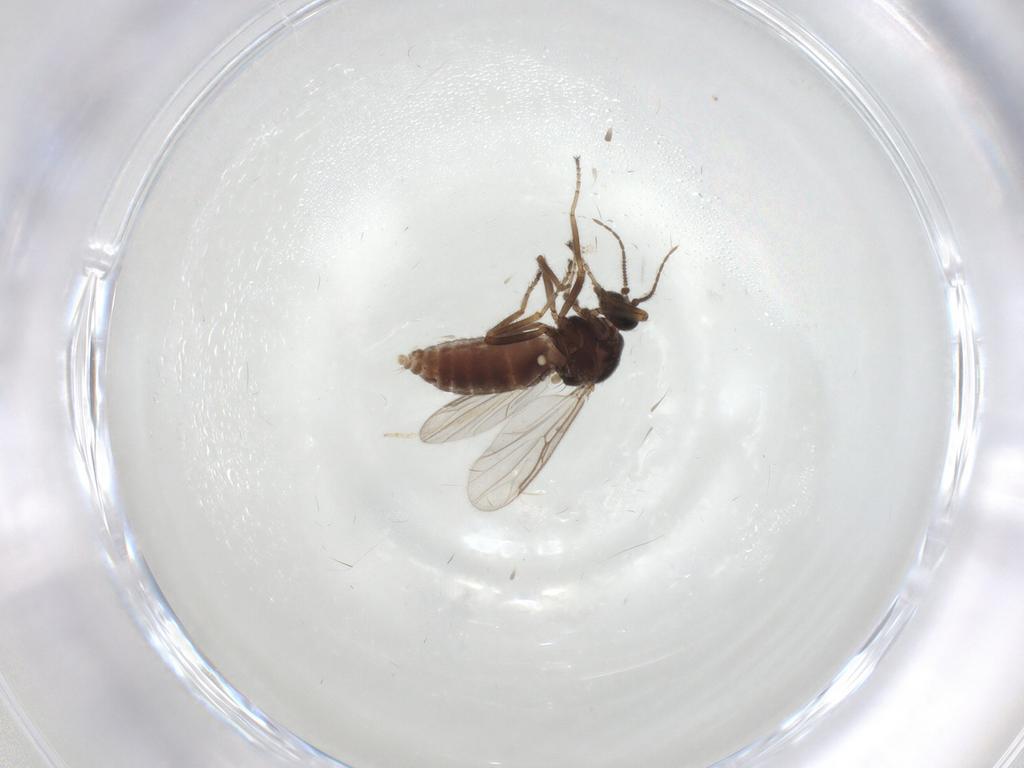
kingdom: Animalia
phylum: Arthropoda
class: Insecta
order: Diptera
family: Ceratopogonidae
